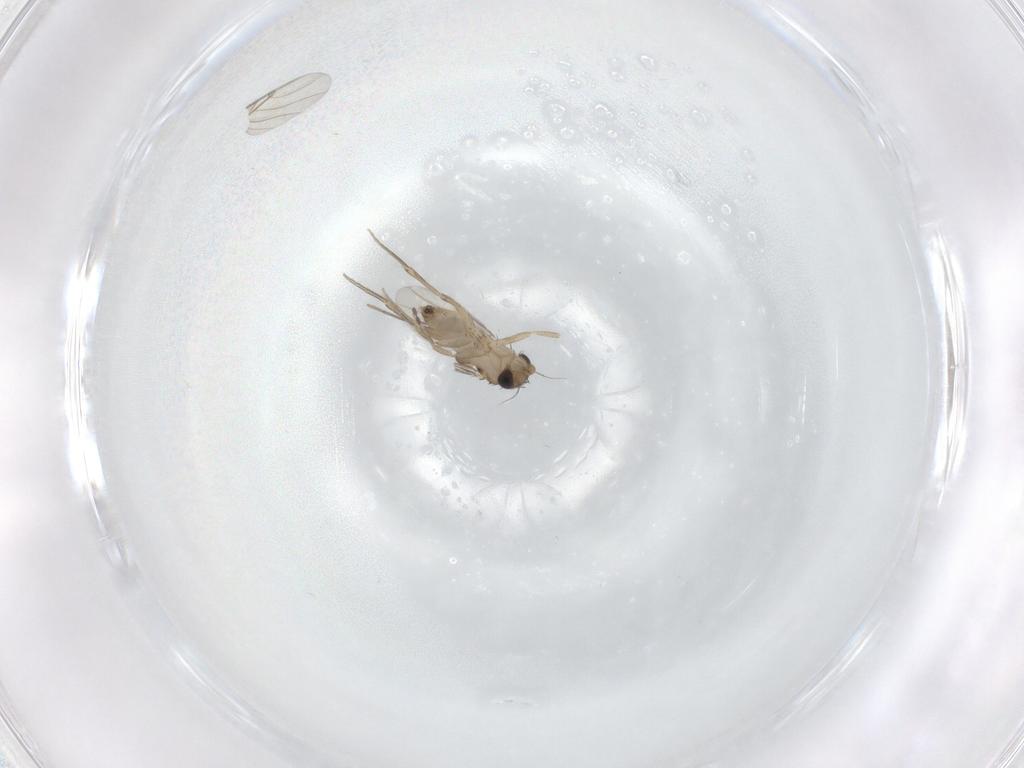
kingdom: Animalia
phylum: Arthropoda
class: Insecta
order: Diptera
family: Phoridae
